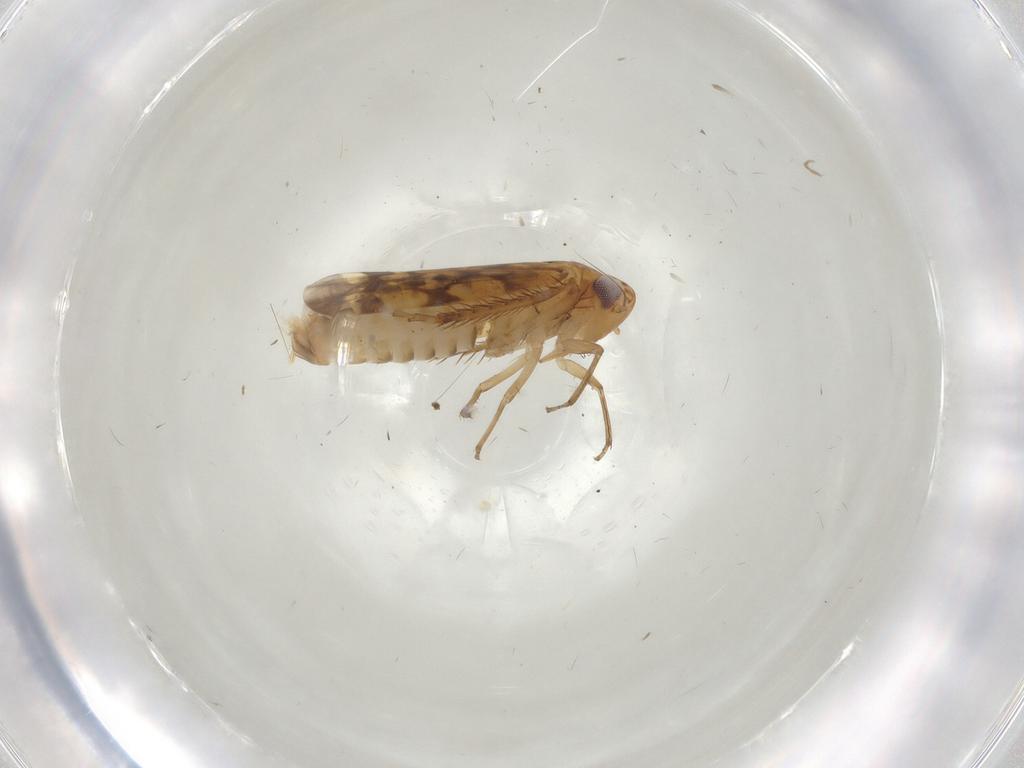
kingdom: Animalia
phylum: Arthropoda
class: Insecta
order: Hemiptera
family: Cicadellidae
